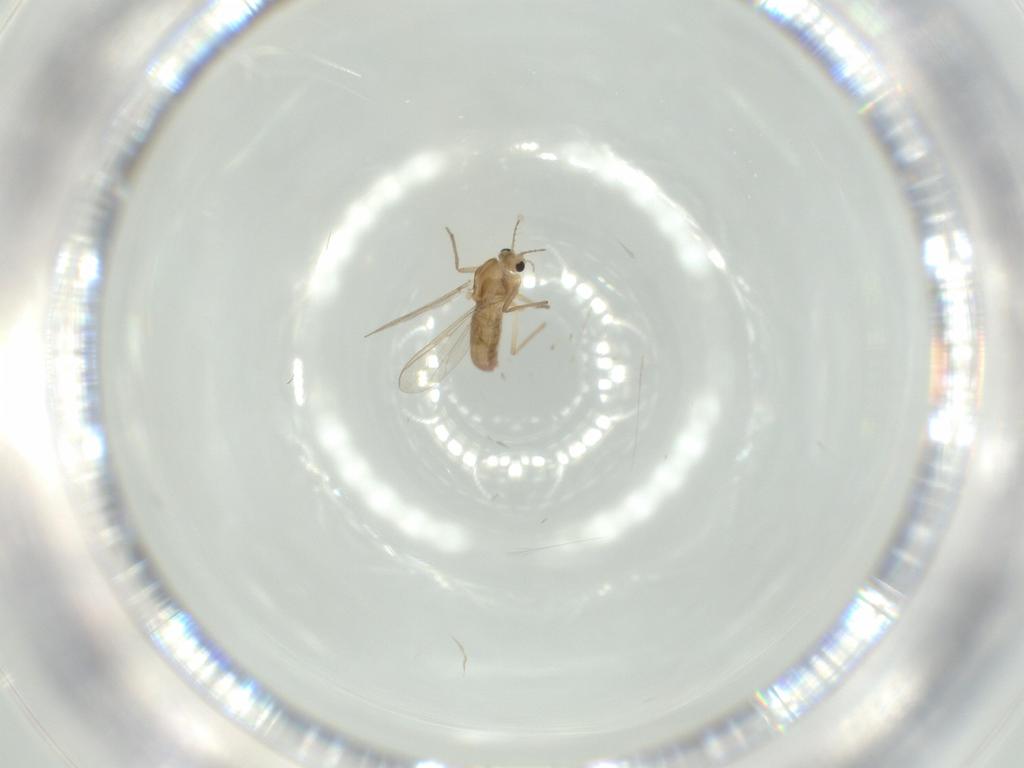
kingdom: Animalia
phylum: Arthropoda
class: Insecta
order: Diptera
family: Chironomidae
